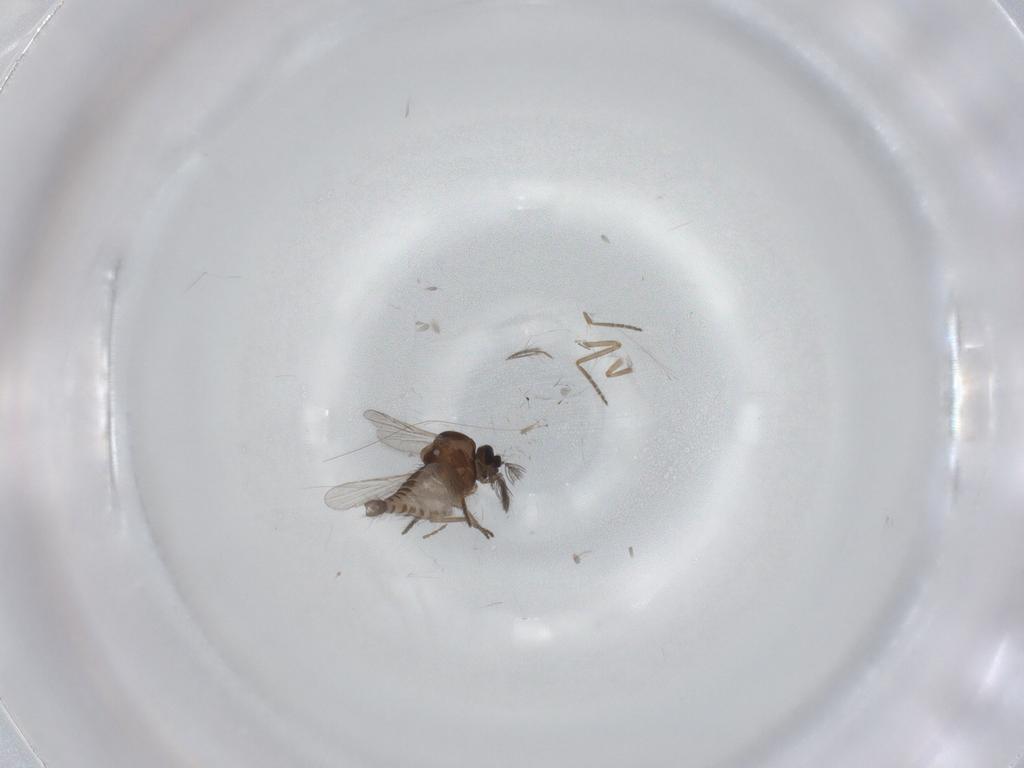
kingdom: Animalia
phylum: Arthropoda
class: Insecta
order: Diptera
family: Cecidomyiidae
